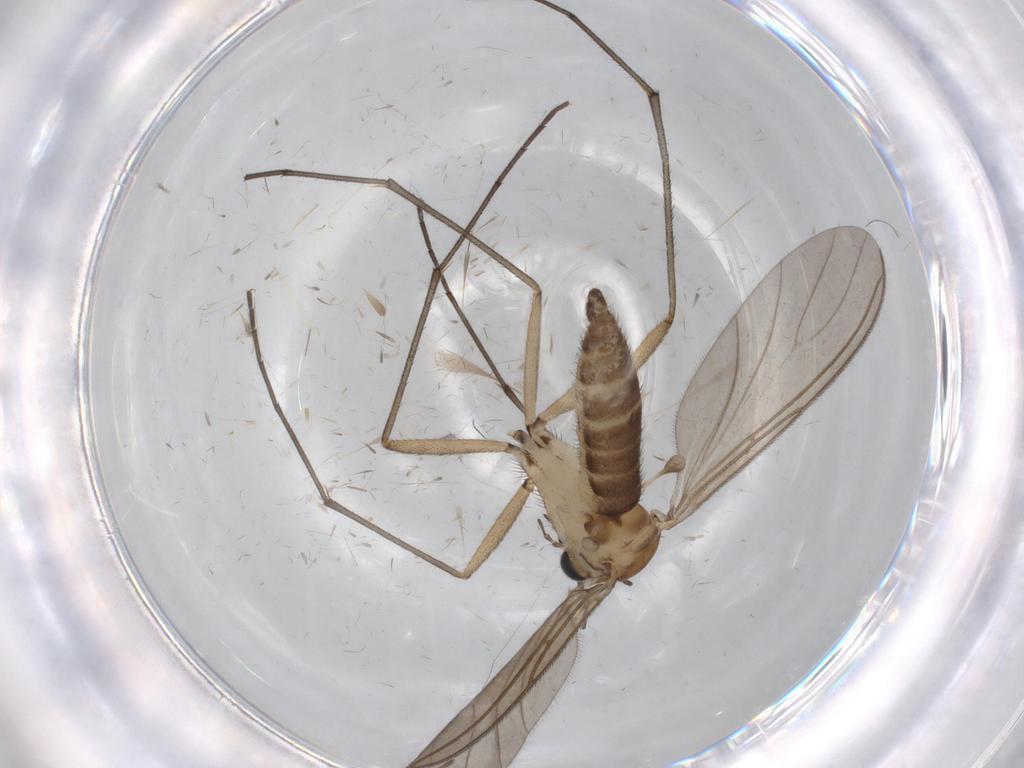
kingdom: Animalia
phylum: Arthropoda
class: Insecta
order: Diptera
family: Sciaridae
